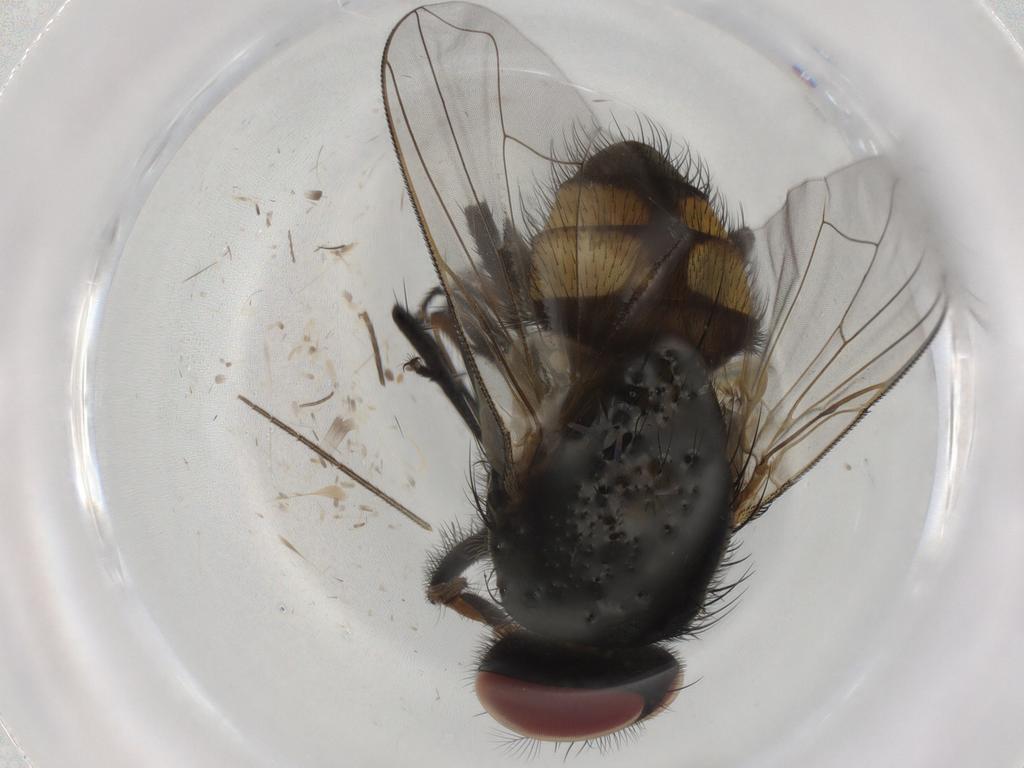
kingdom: Animalia
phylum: Arthropoda
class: Insecta
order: Diptera
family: Muscidae
